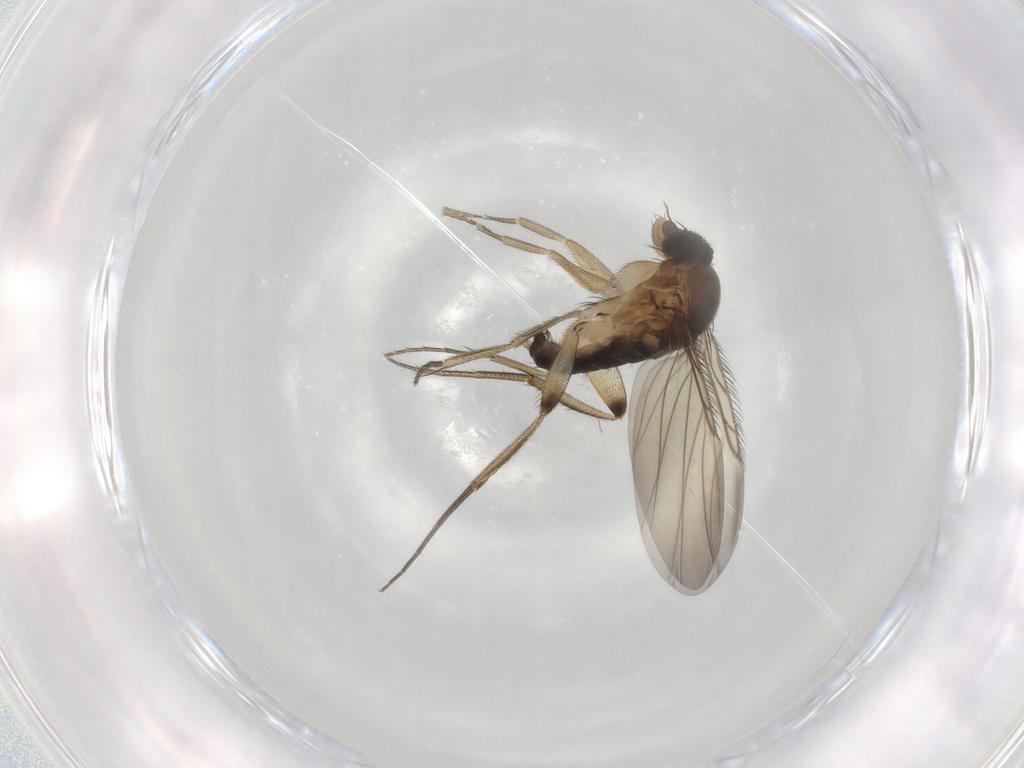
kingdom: Animalia
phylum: Arthropoda
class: Insecta
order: Diptera
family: Phoridae
